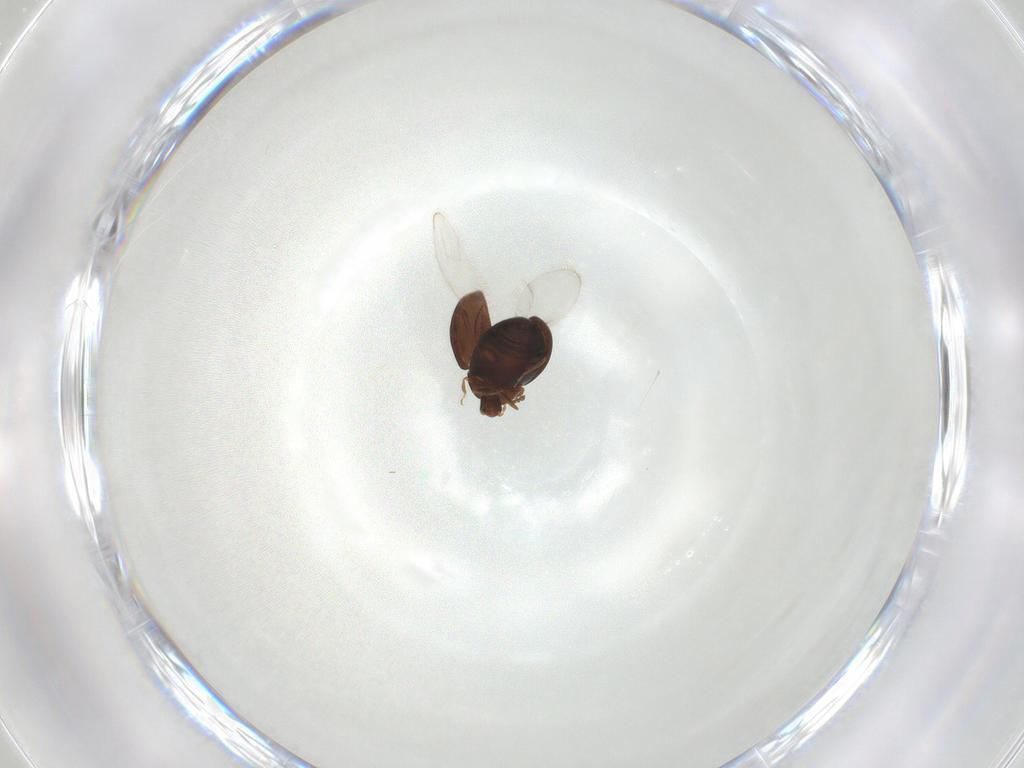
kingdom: Animalia
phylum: Arthropoda
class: Insecta
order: Coleoptera
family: Corylophidae
